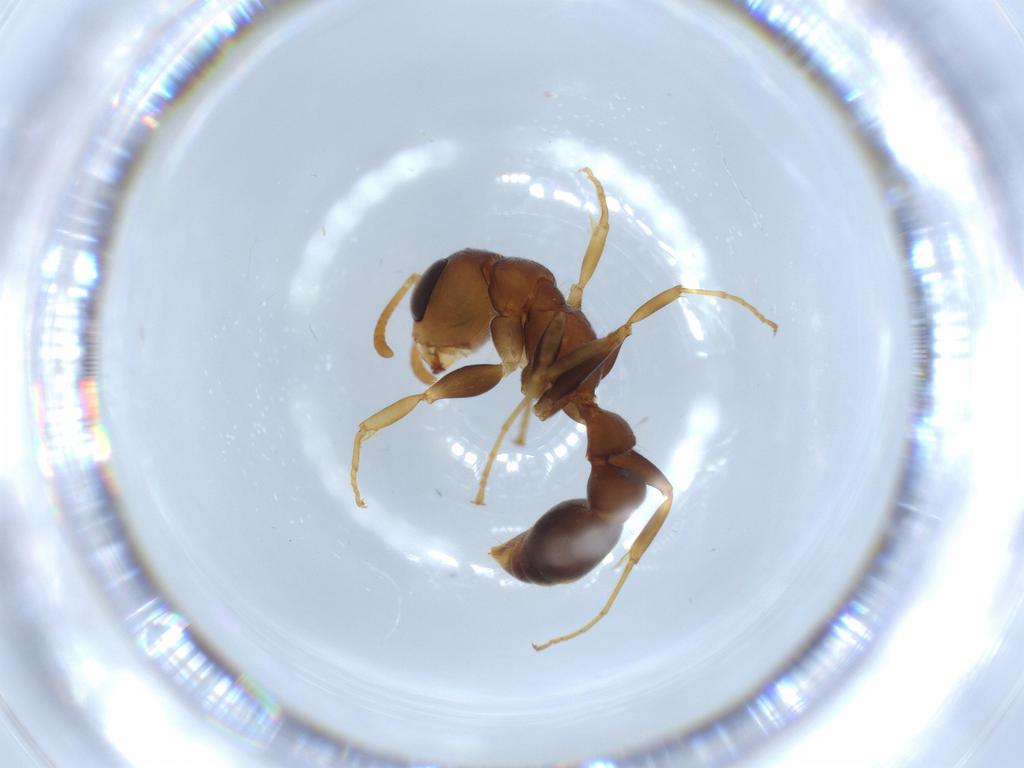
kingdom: Animalia
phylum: Arthropoda
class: Insecta
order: Hymenoptera
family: Formicidae
